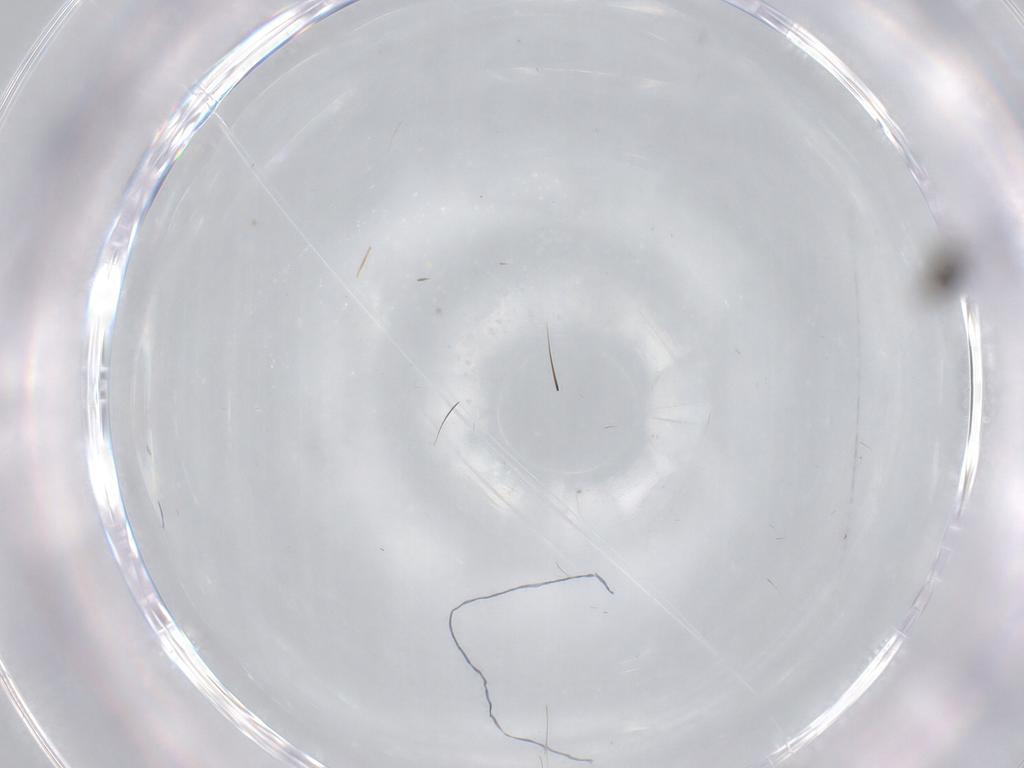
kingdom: Animalia
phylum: Arthropoda
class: Insecta
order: Diptera
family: Ceratopogonidae
